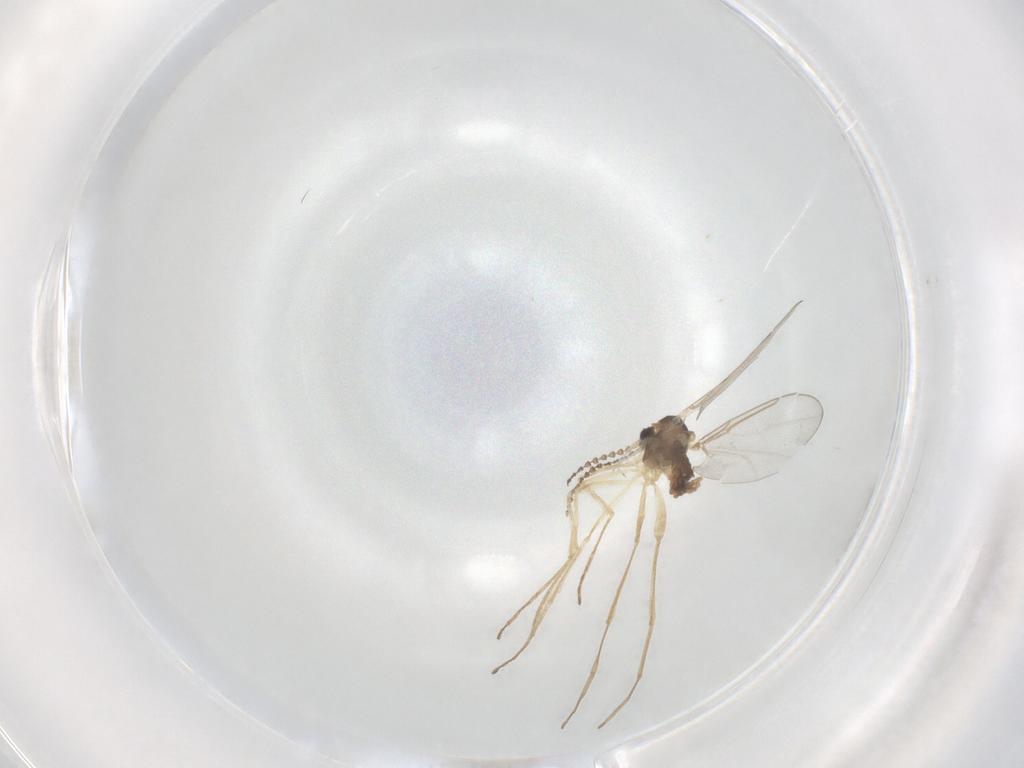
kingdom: Animalia
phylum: Arthropoda
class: Insecta
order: Diptera
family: Cecidomyiidae
